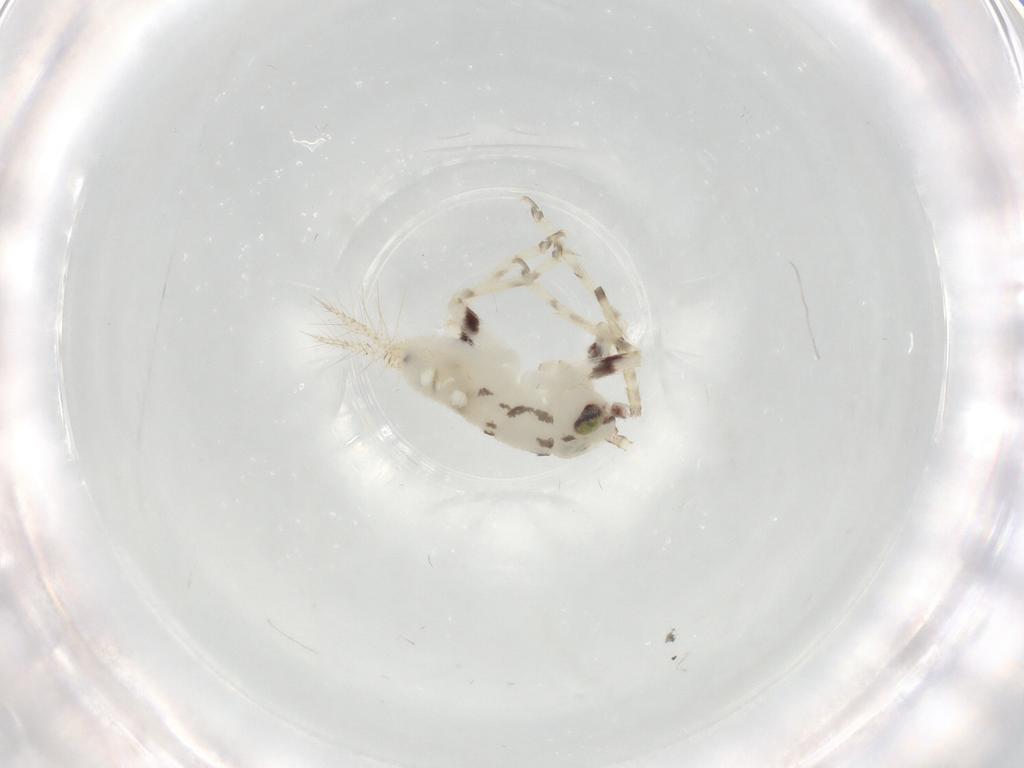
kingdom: Animalia
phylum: Arthropoda
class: Insecta
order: Orthoptera
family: Trigonidiidae
